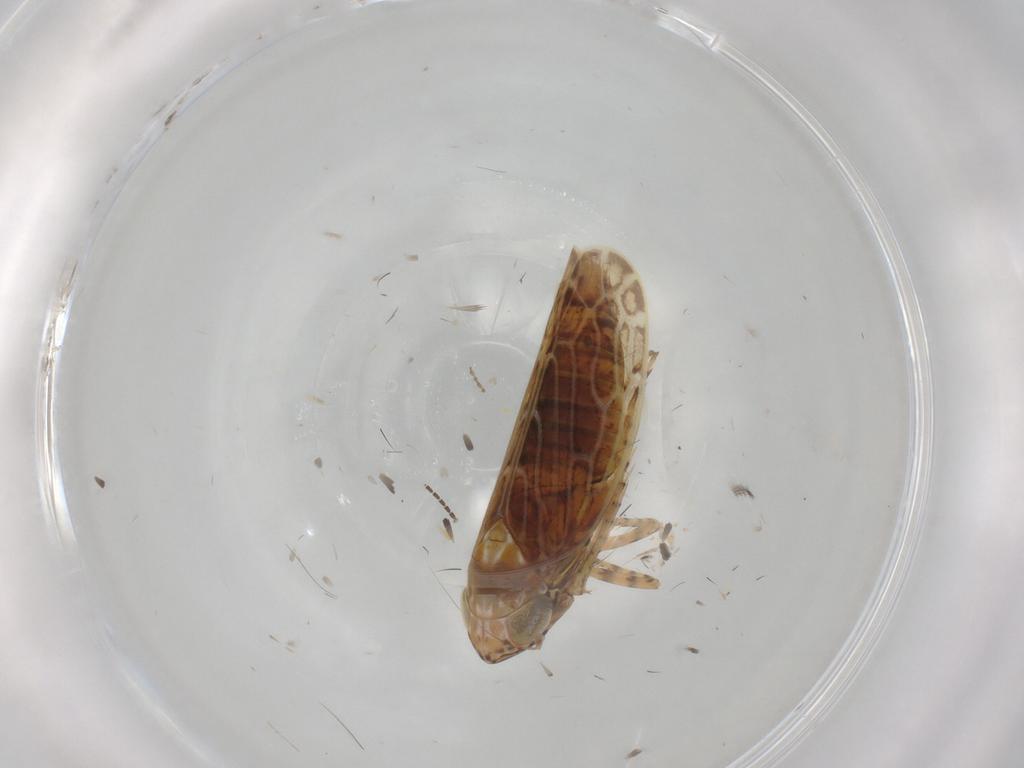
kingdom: Animalia
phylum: Arthropoda
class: Insecta
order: Hemiptera
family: Cicadellidae
